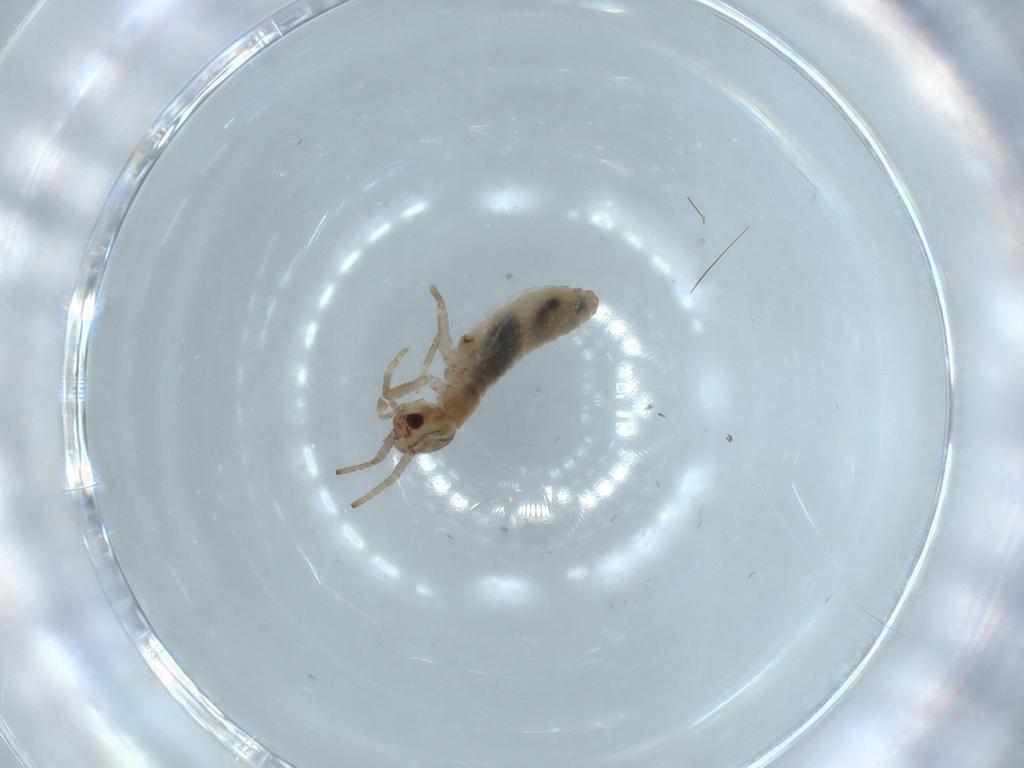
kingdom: Animalia
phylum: Arthropoda
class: Insecta
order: Orthoptera
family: Mogoplistidae
